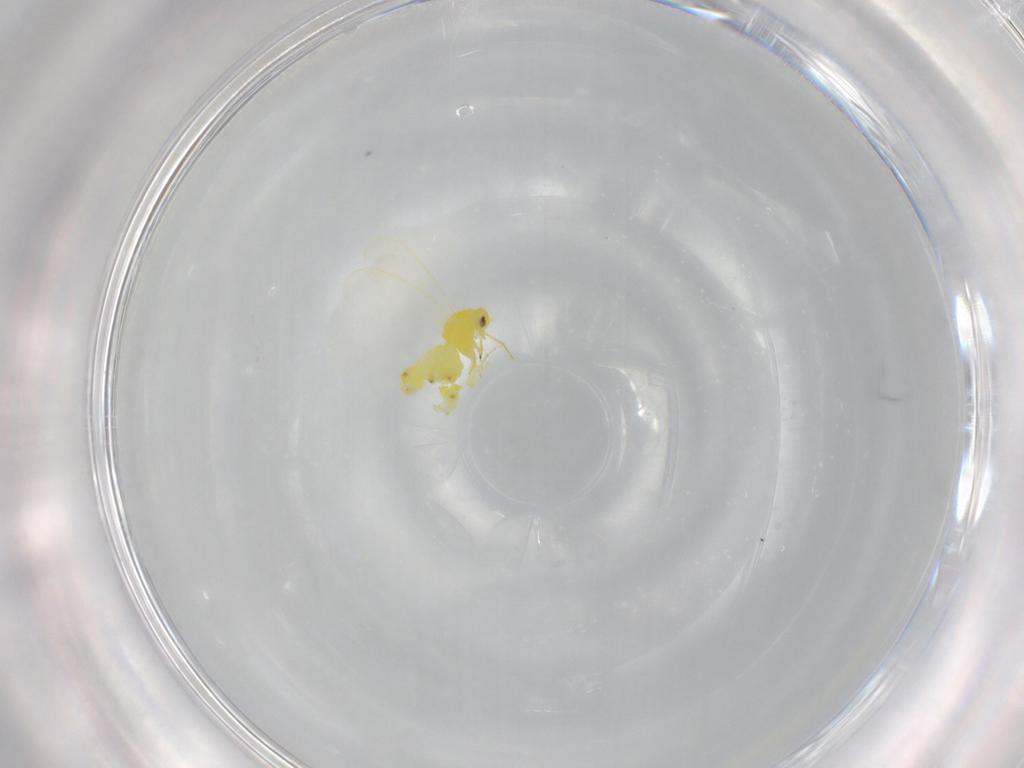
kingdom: Animalia
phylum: Arthropoda
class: Insecta
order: Hemiptera
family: Aleyrodidae
